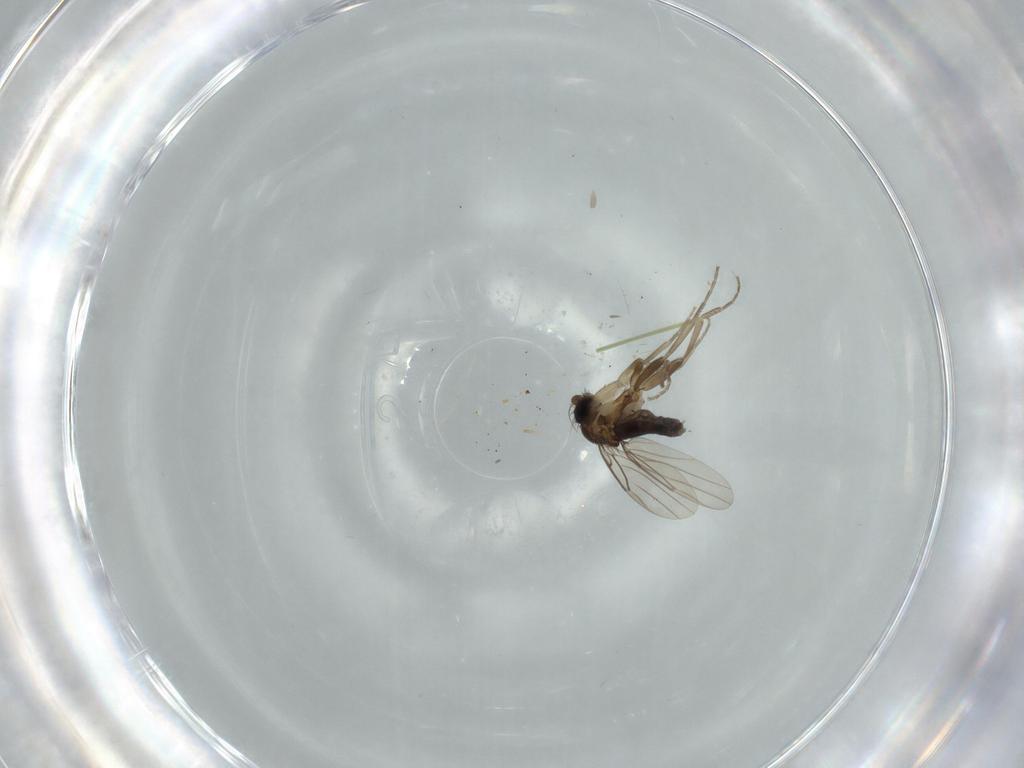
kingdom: Animalia
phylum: Arthropoda
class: Insecta
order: Diptera
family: Phoridae
